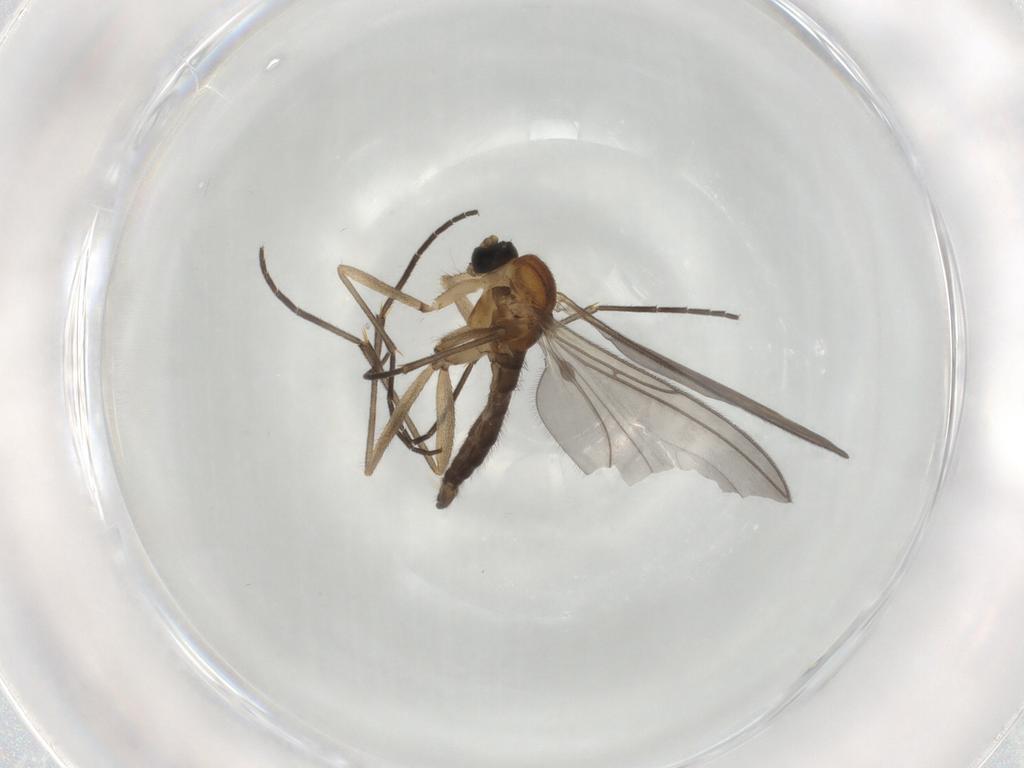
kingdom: Animalia
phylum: Arthropoda
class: Insecta
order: Diptera
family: Sciaridae
